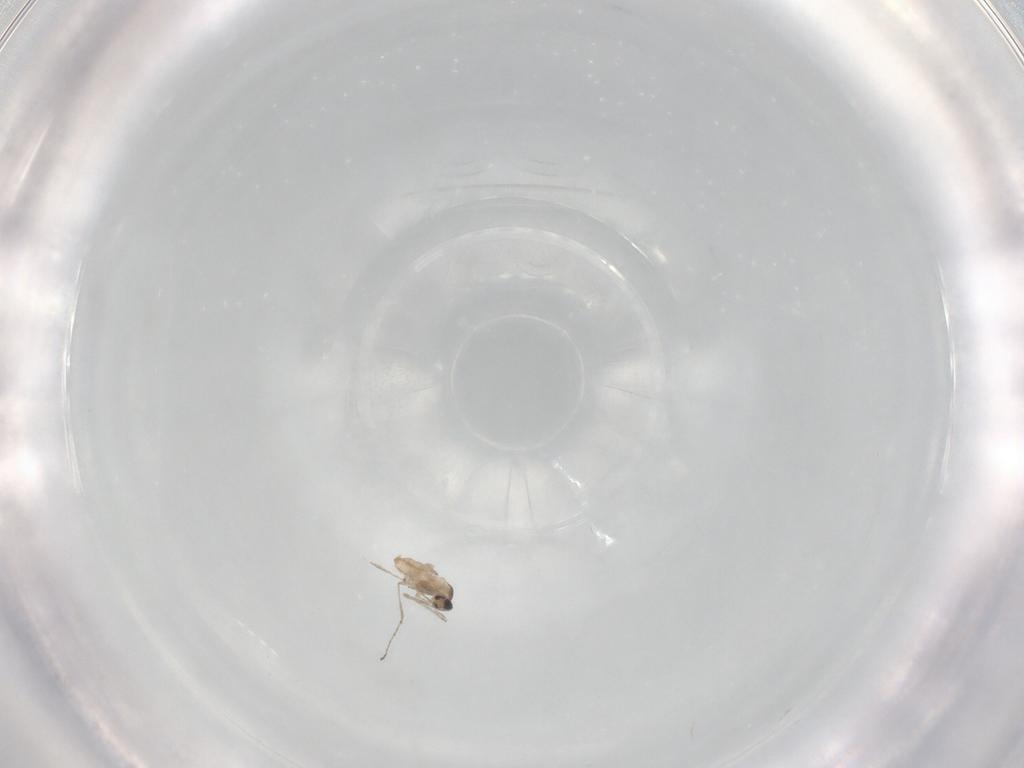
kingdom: Animalia
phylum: Arthropoda
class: Insecta
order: Diptera
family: Cecidomyiidae
